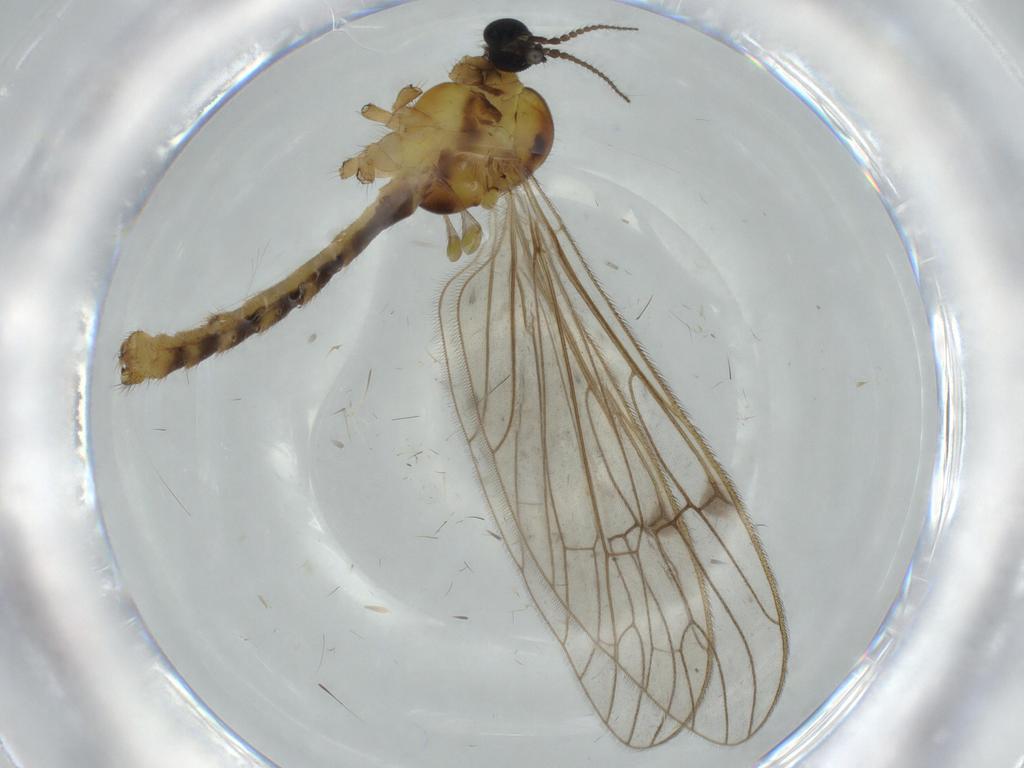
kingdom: Animalia
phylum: Arthropoda
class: Insecta
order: Diptera
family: Limoniidae
